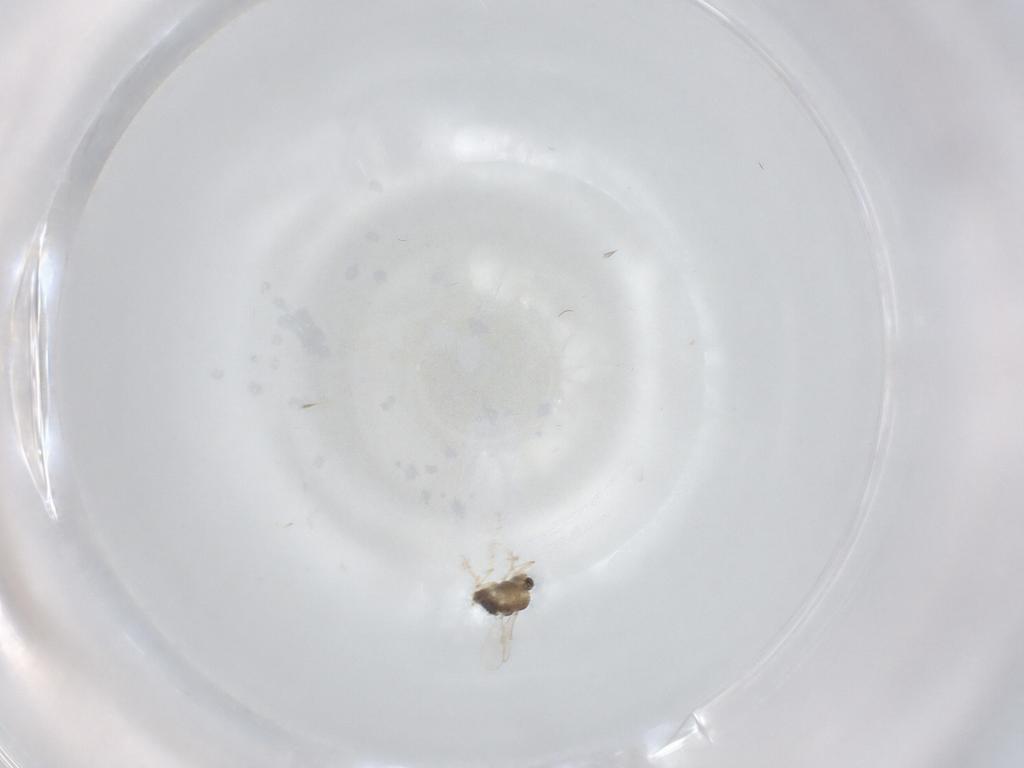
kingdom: Animalia
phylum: Arthropoda
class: Insecta
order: Diptera
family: Chironomidae
